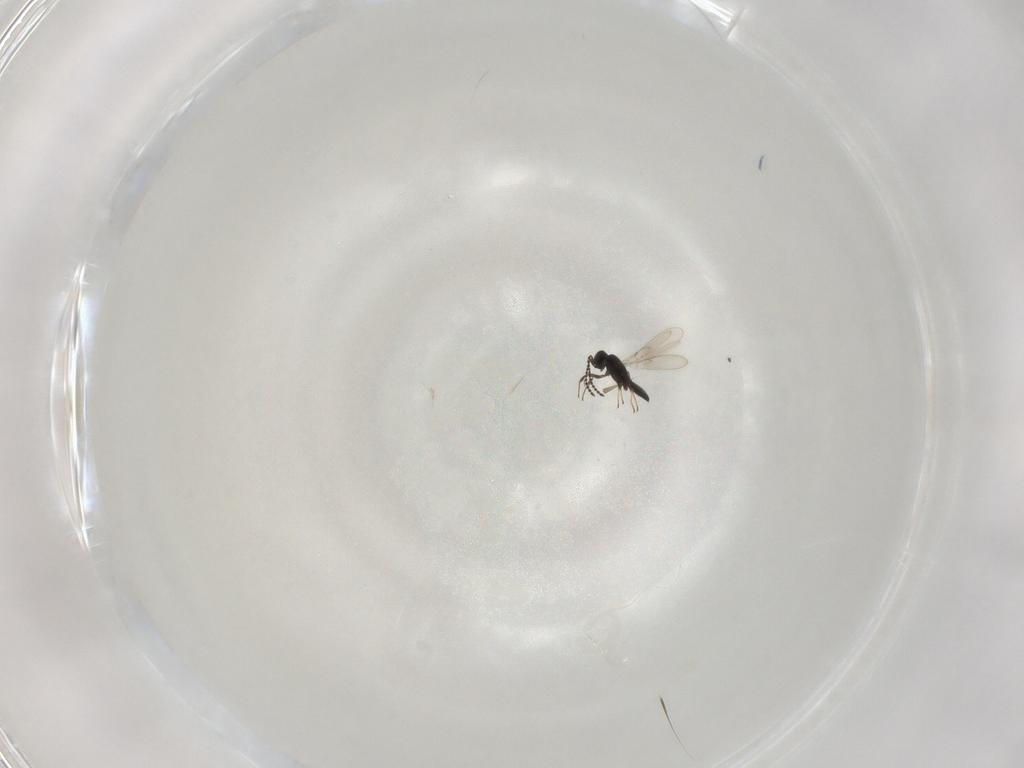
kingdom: Animalia
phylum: Arthropoda
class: Insecta
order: Hymenoptera
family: Scelionidae
